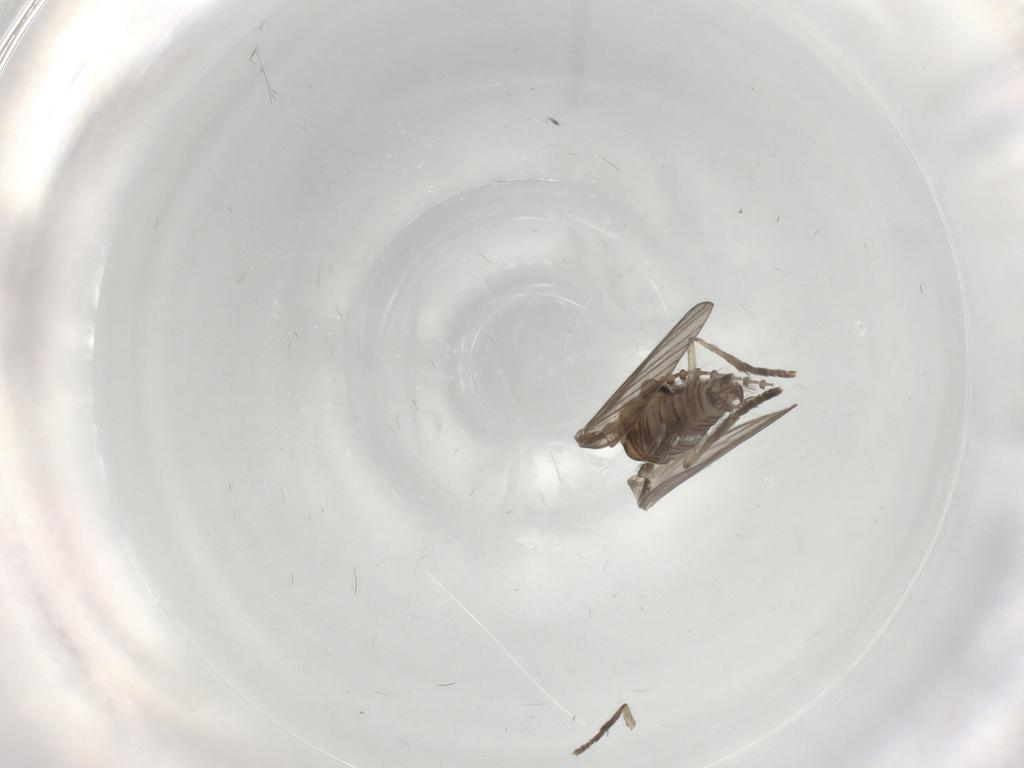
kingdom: Animalia
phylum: Arthropoda
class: Insecta
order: Diptera
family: Psychodidae
